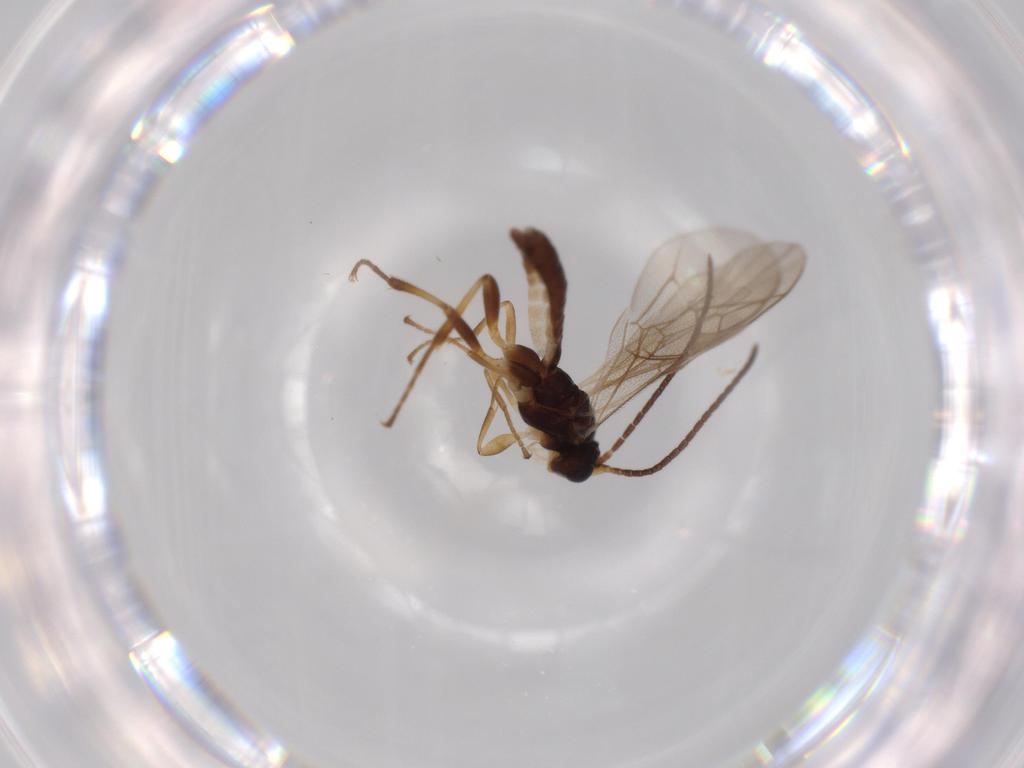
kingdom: Animalia
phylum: Arthropoda
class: Insecta
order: Hymenoptera
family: Ichneumonidae
